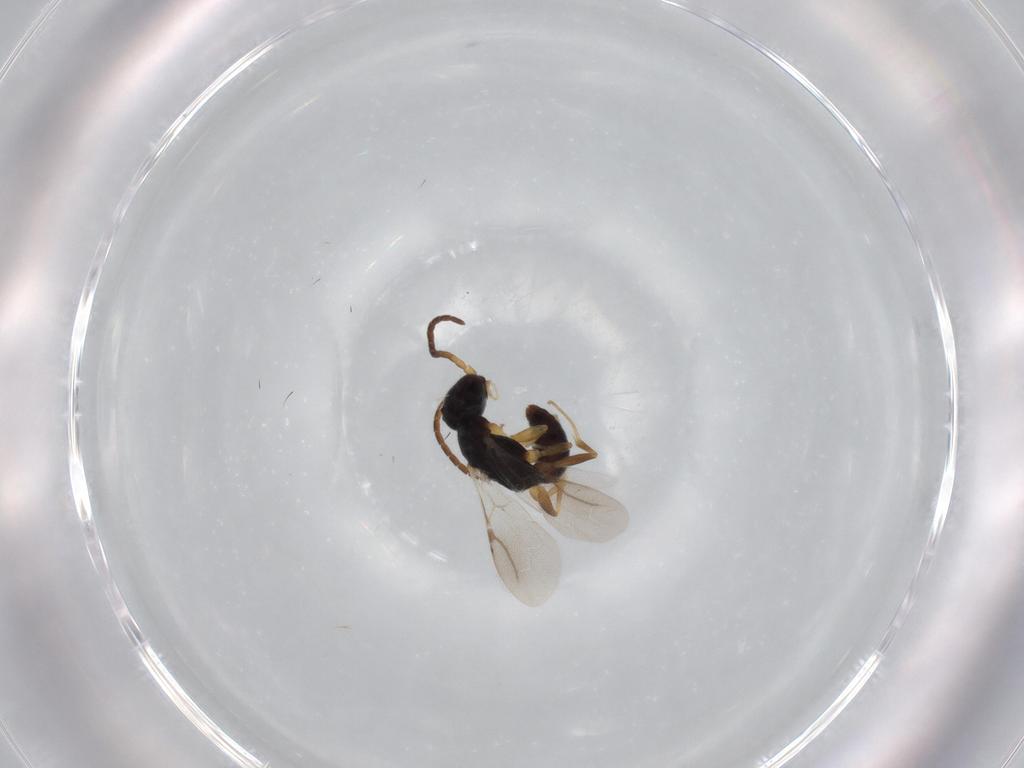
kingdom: Animalia
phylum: Arthropoda
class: Insecta
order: Hymenoptera
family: Bethylidae
